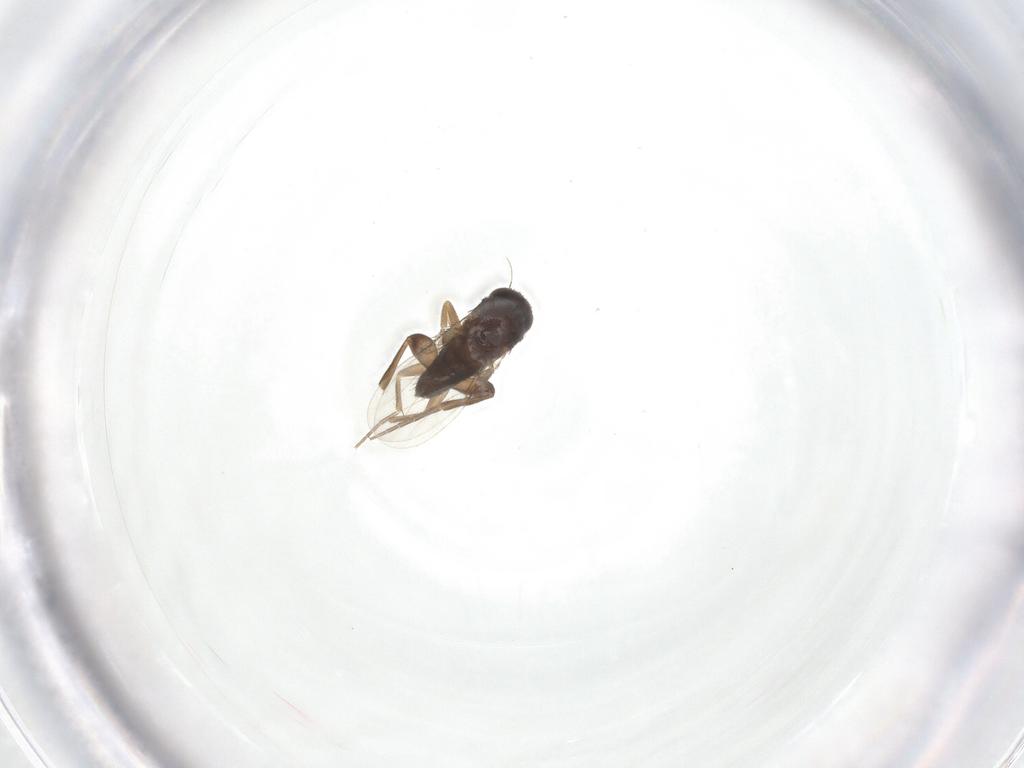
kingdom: Animalia
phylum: Arthropoda
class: Insecta
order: Diptera
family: Phoridae
